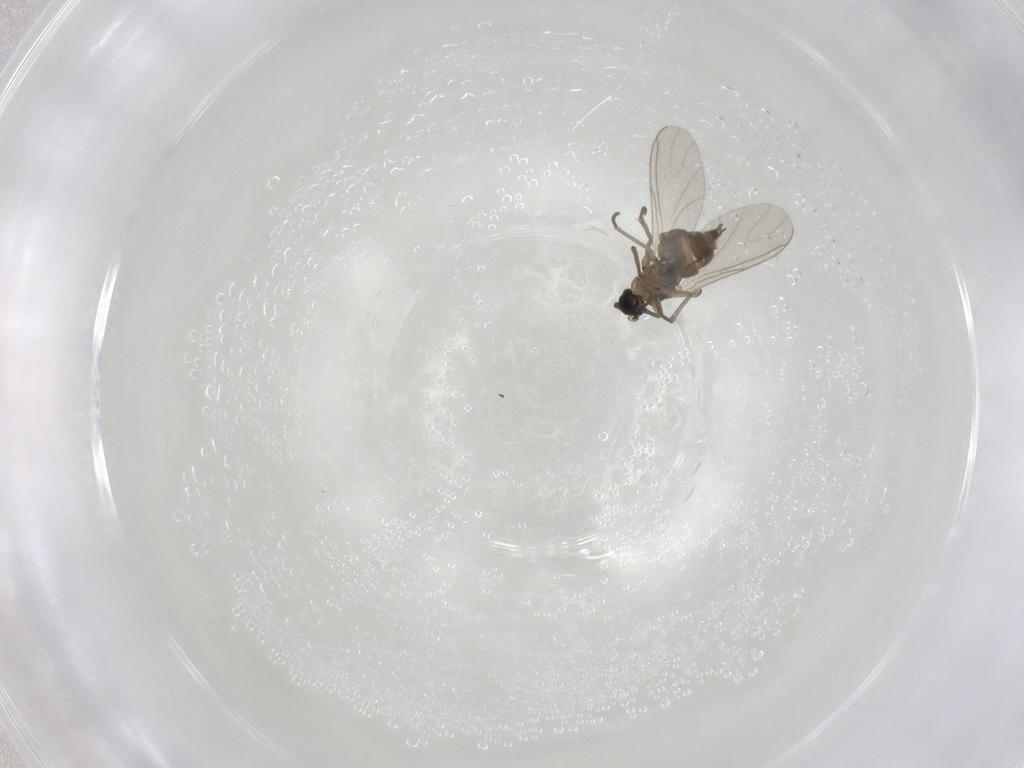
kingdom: Animalia
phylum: Arthropoda
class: Insecta
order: Diptera
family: Sciaridae
